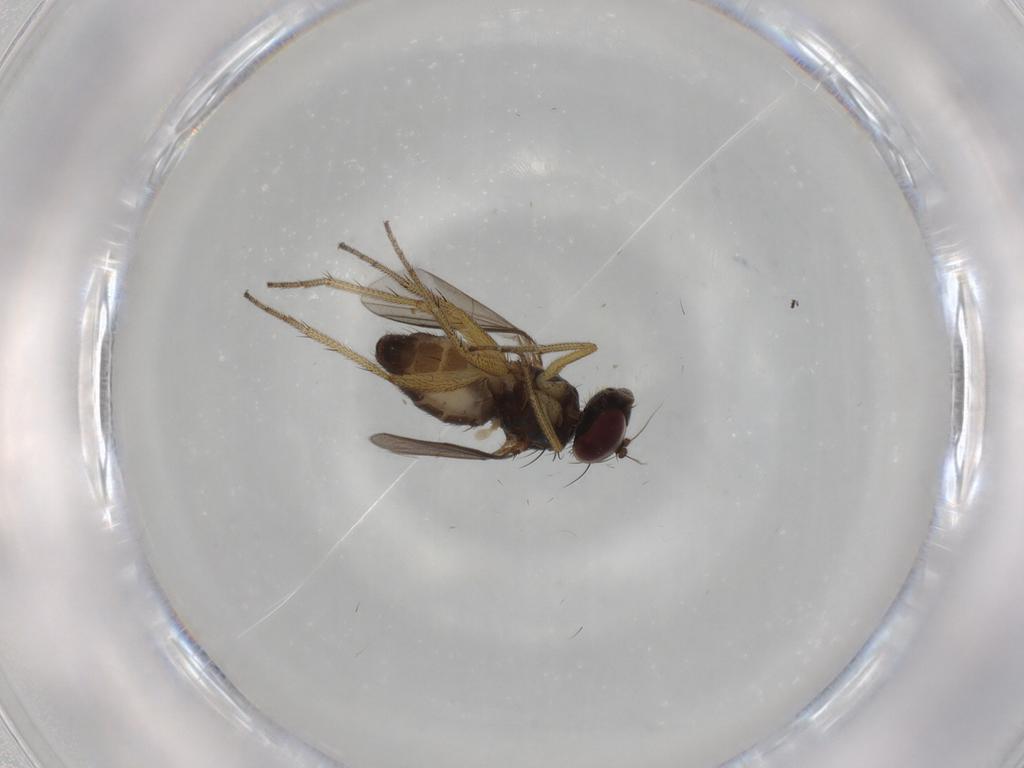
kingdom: Animalia
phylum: Arthropoda
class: Insecta
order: Diptera
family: Dolichopodidae
